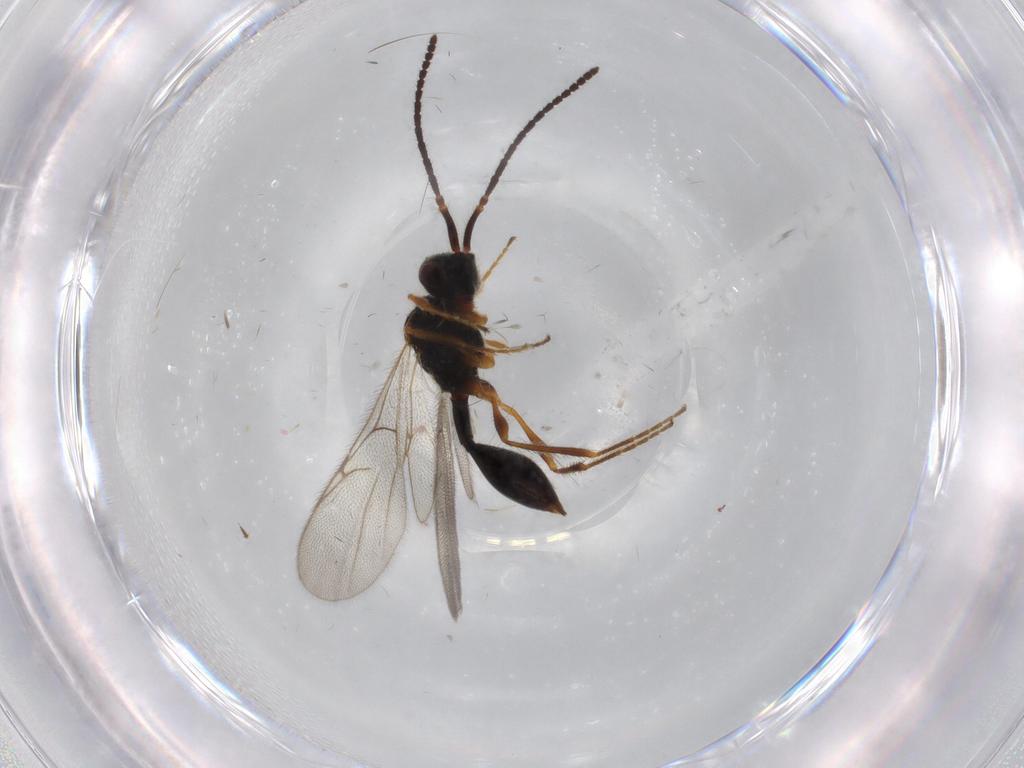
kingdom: Animalia
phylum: Arthropoda
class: Insecta
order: Hymenoptera
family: Diapriidae
